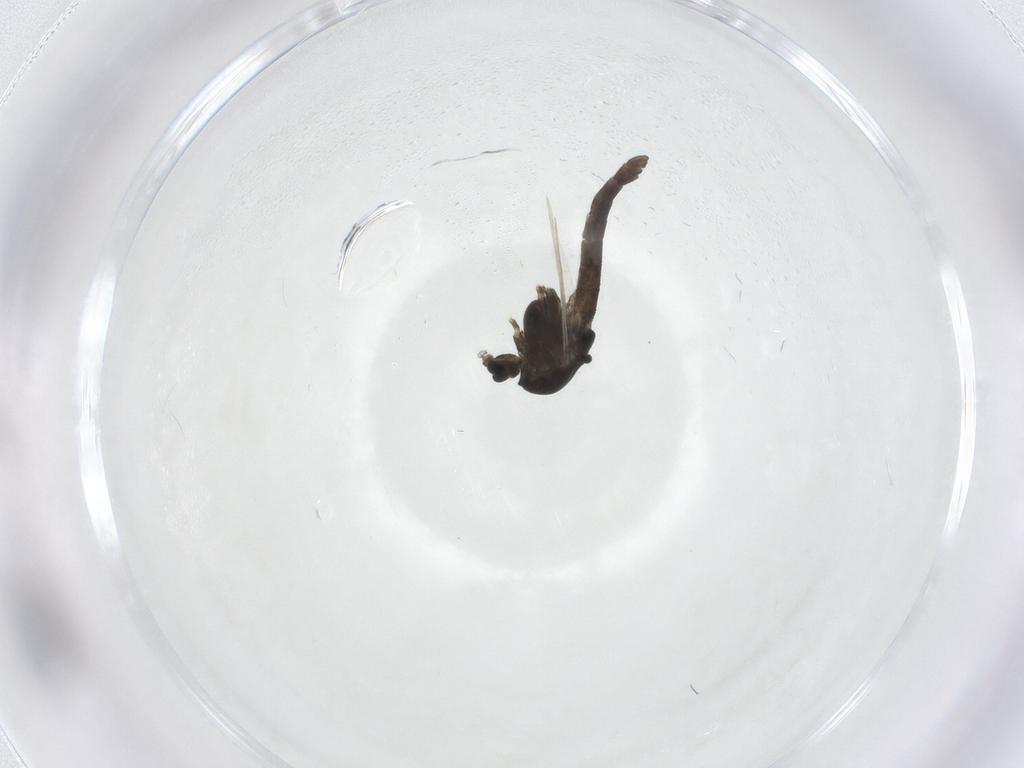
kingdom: Animalia
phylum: Arthropoda
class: Insecta
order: Diptera
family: Chironomidae
